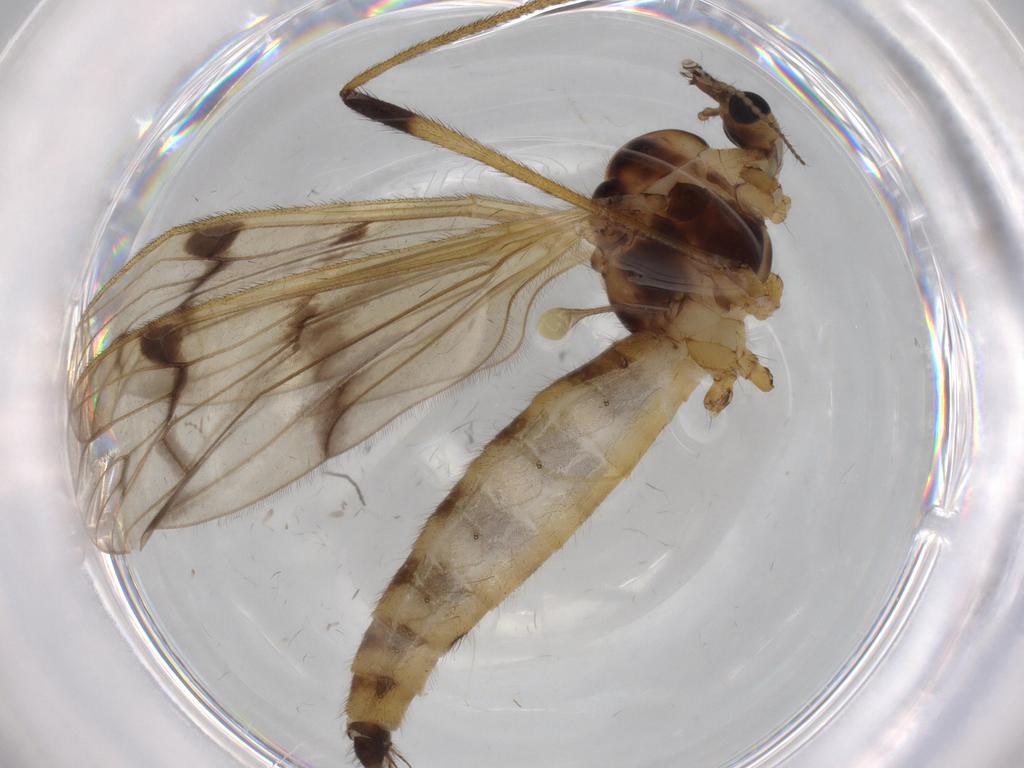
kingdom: Animalia
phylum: Arthropoda
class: Insecta
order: Diptera
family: Limoniidae
